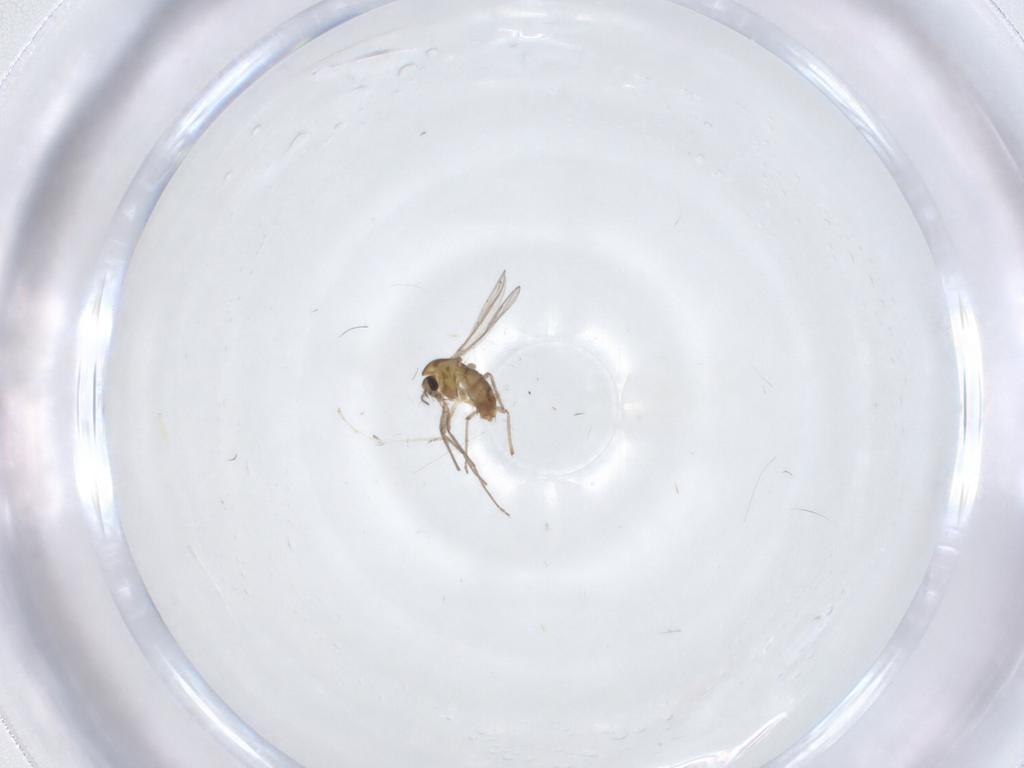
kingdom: Animalia
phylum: Arthropoda
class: Insecta
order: Diptera
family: Cecidomyiidae
